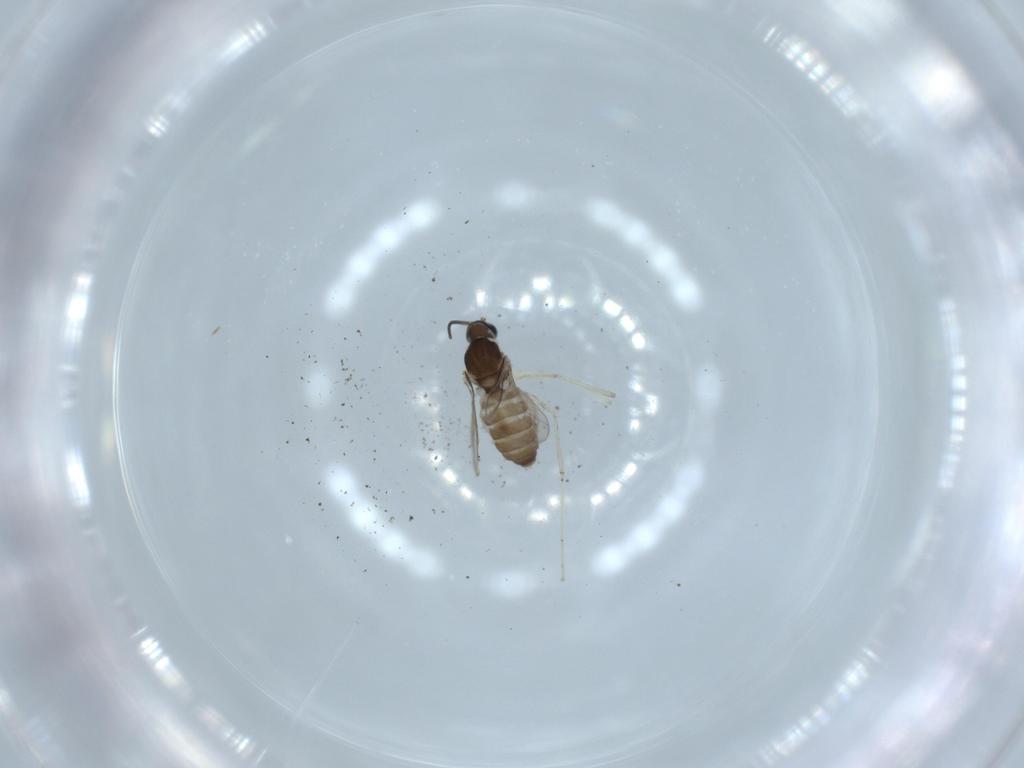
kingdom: Animalia
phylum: Arthropoda
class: Insecta
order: Diptera
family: Cecidomyiidae
